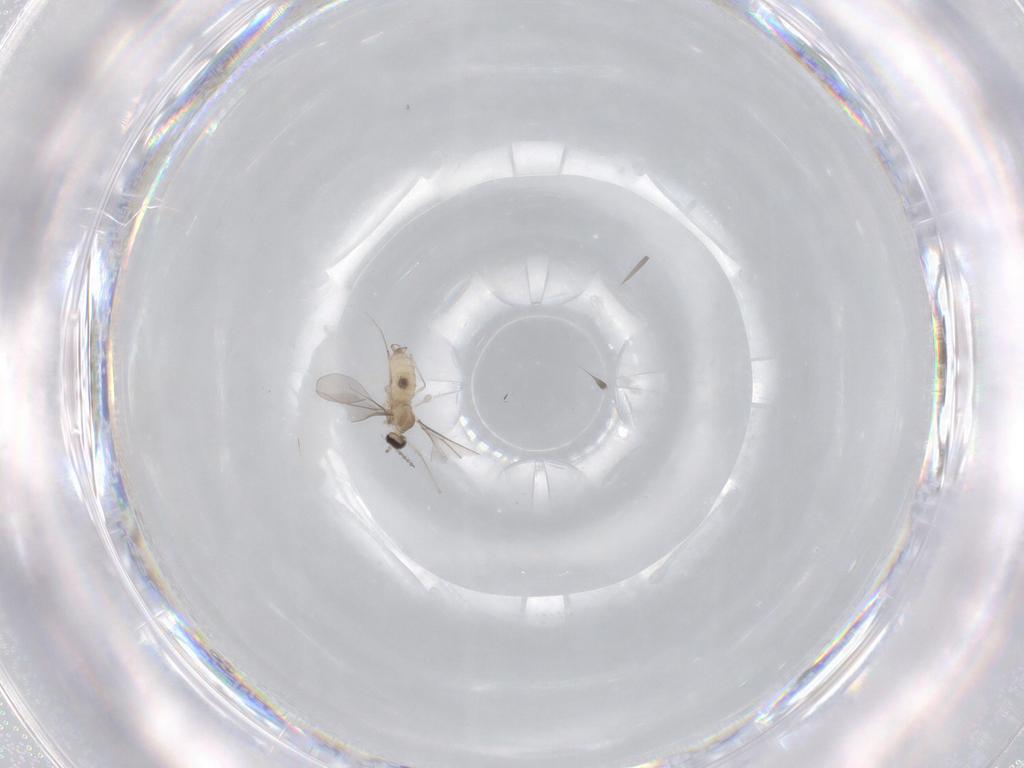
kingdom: Animalia
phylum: Arthropoda
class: Insecta
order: Diptera
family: Cecidomyiidae
